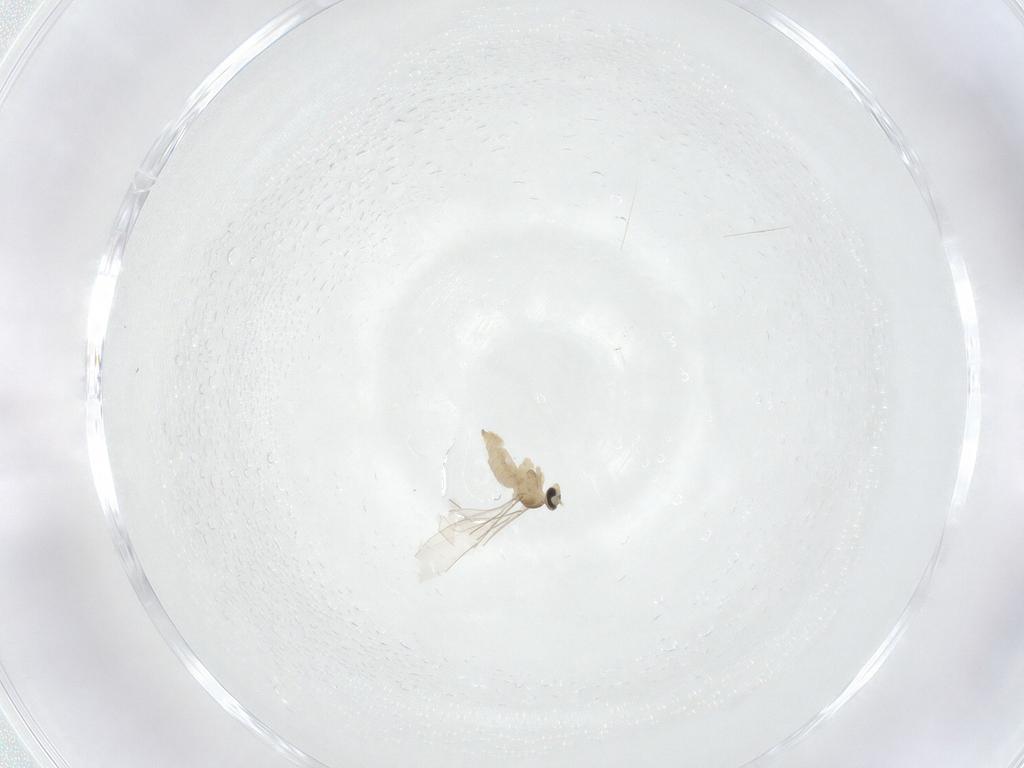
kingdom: Animalia
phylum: Arthropoda
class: Insecta
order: Diptera
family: Cecidomyiidae
